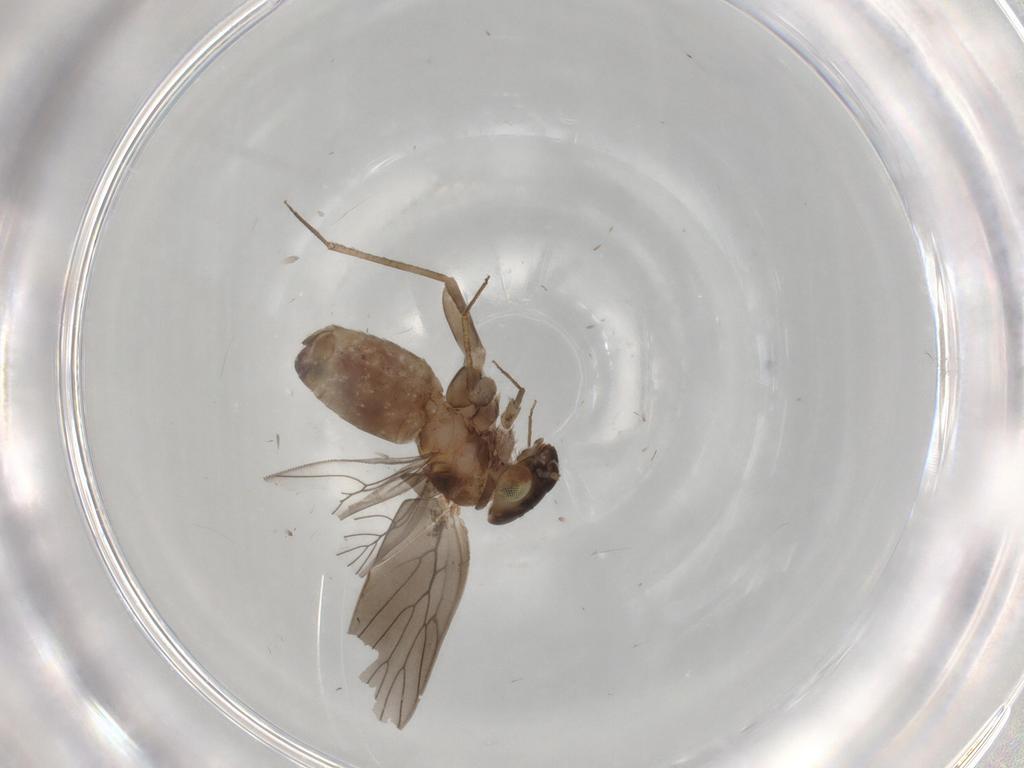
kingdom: Animalia
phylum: Arthropoda
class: Insecta
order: Psocodea
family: Lepidopsocidae
